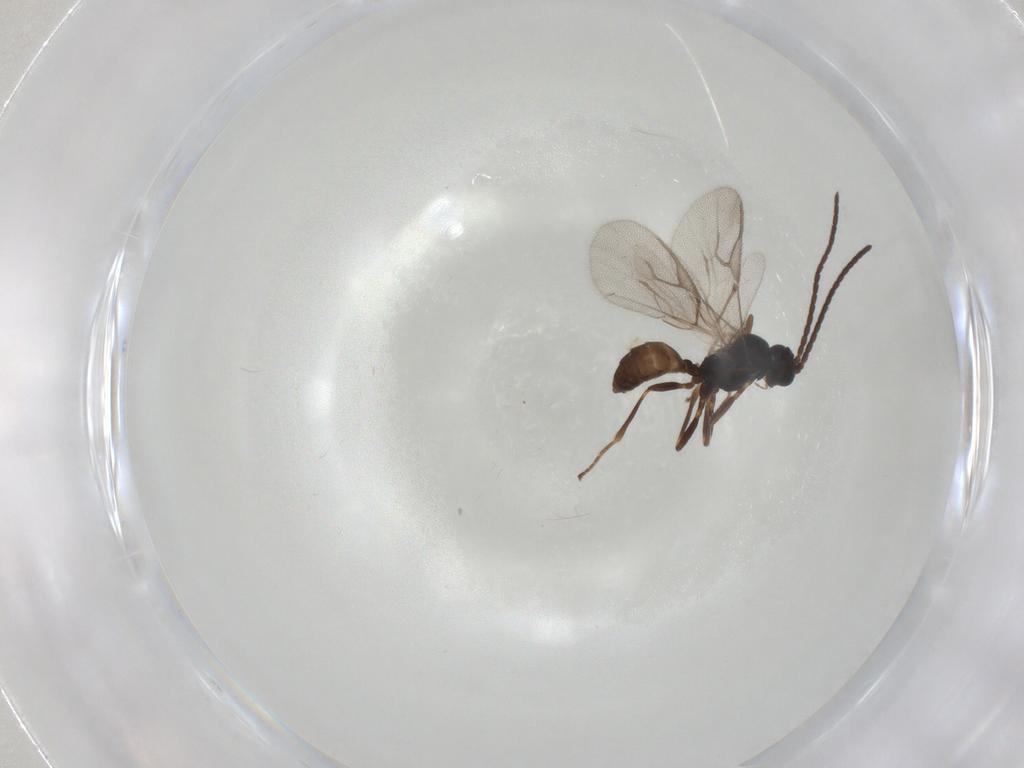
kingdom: Animalia
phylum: Arthropoda
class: Insecta
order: Hymenoptera
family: Braconidae
